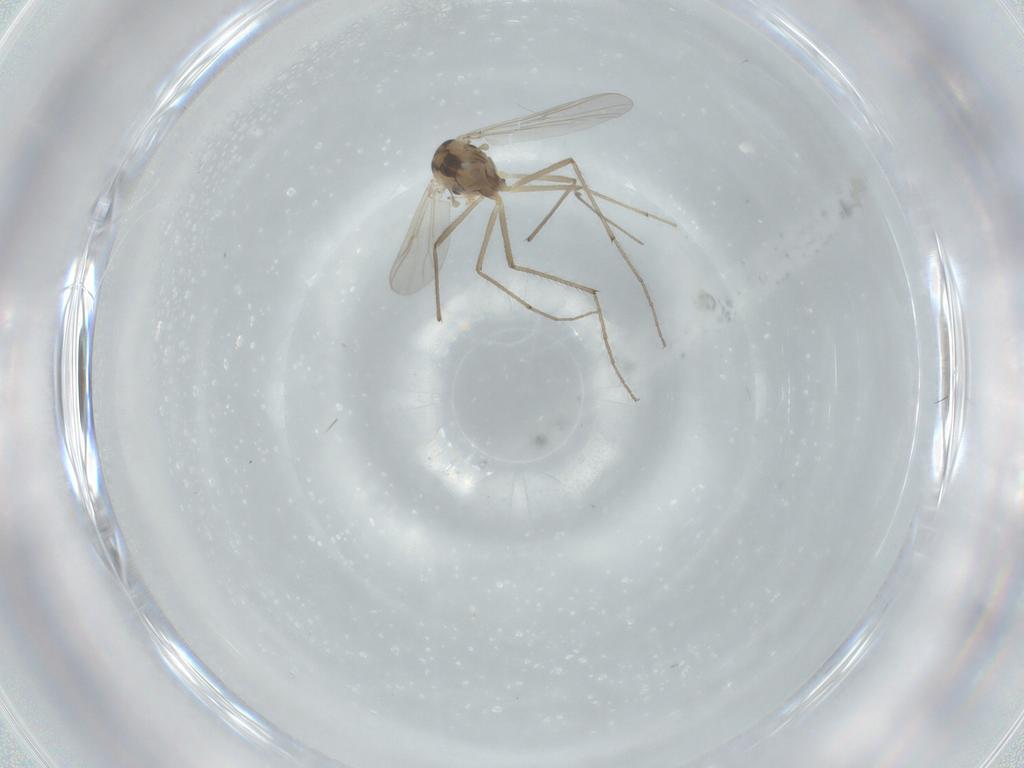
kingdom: Animalia
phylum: Arthropoda
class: Insecta
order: Diptera
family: Chironomidae
